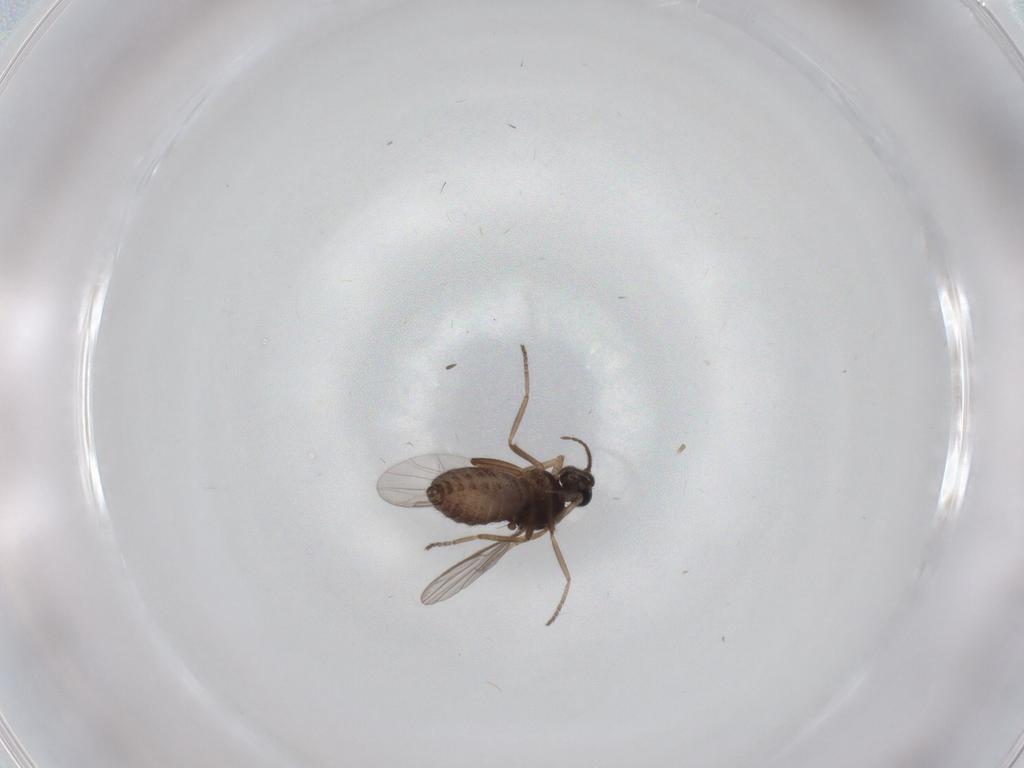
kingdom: Animalia
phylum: Arthropoda
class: Insecta
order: Diptera
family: Ceratopogonidae
